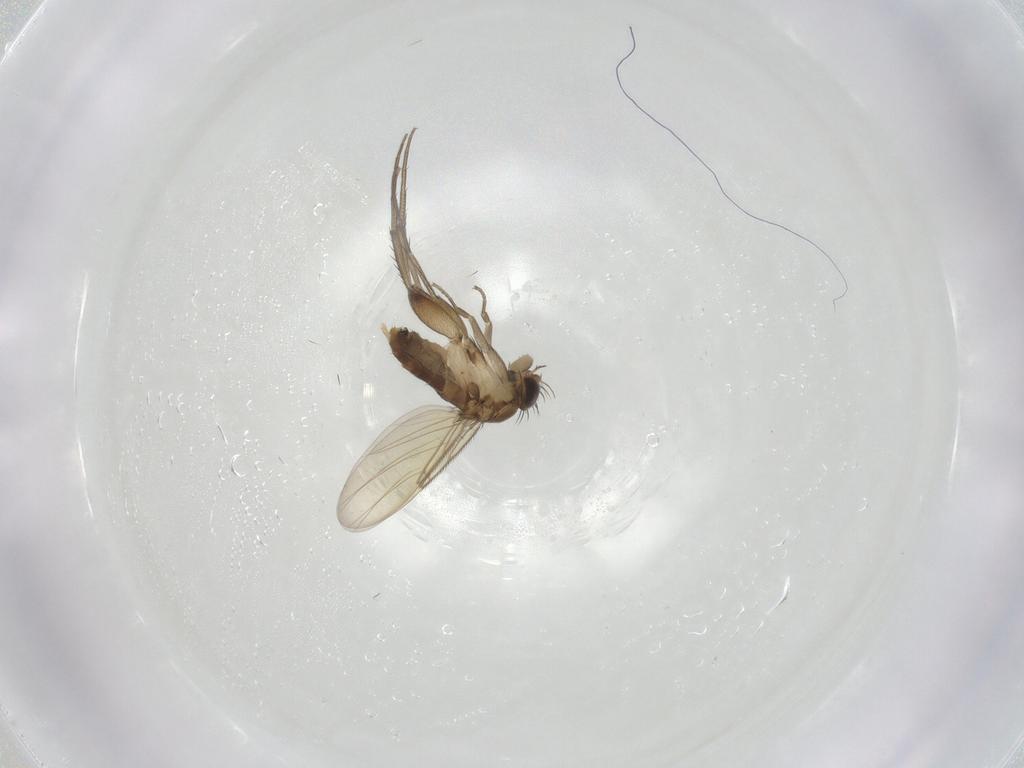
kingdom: Animalia
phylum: Arthropoda
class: Insecta
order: Diptera
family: Phoridae
